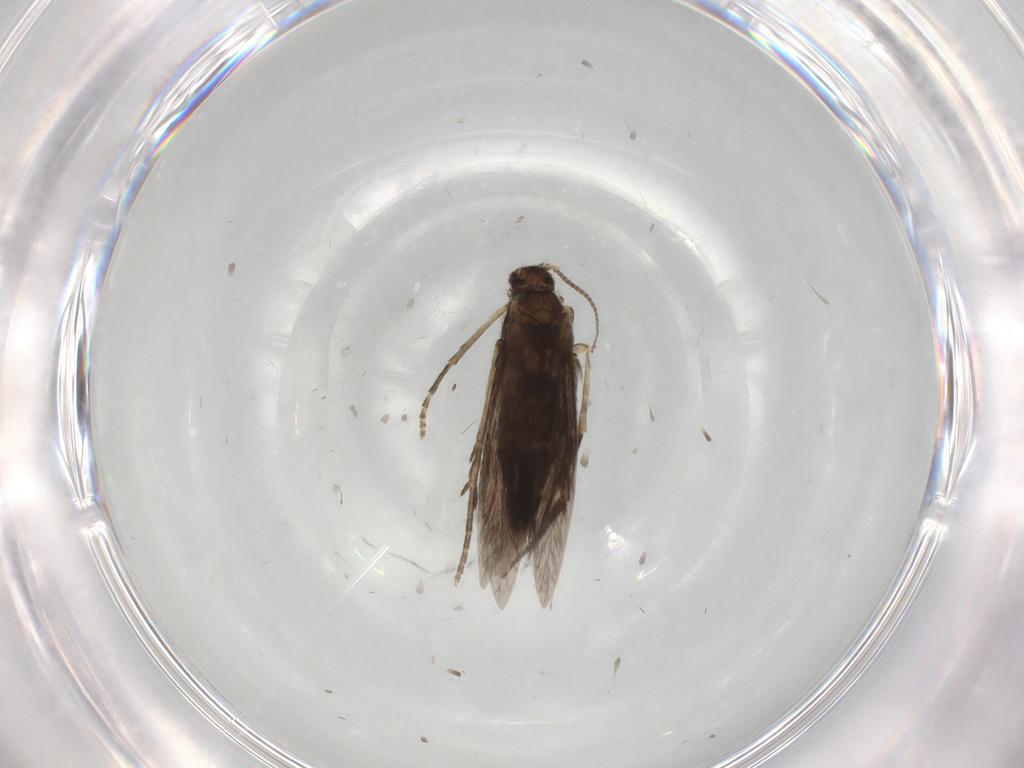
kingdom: Animalia
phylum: Arthropoda
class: Insecta
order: Trichoptera
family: Hydroptilidae
